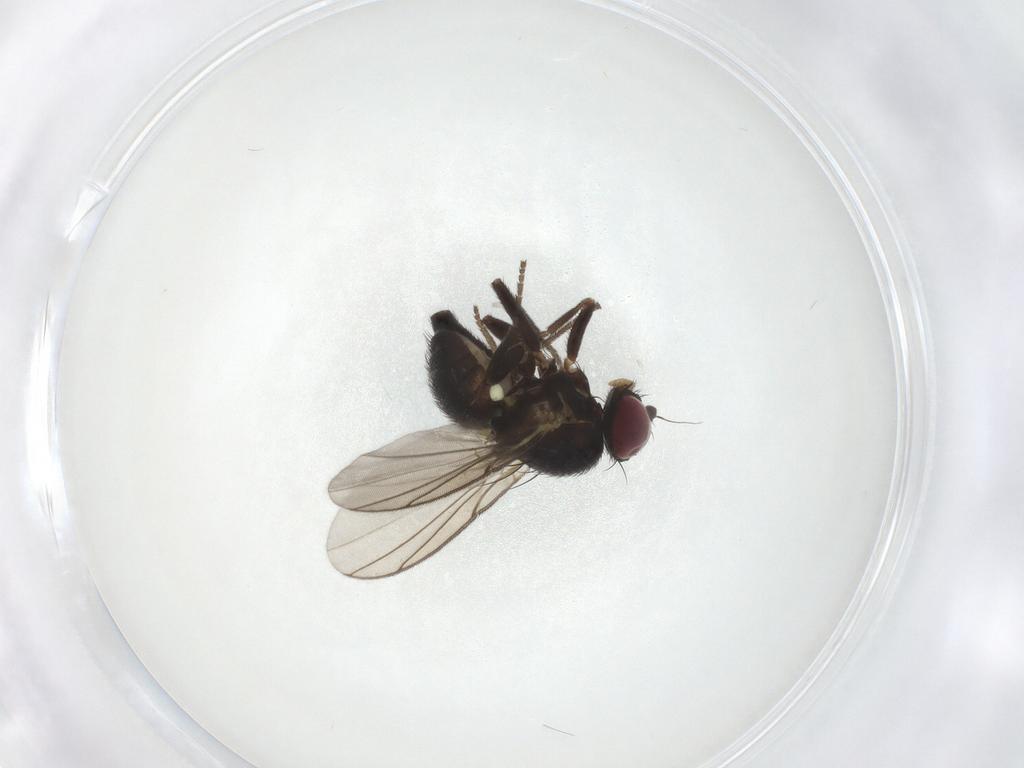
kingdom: Animalia
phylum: Arthropoda
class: Insecta
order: Diptera
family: Agromyzidae
